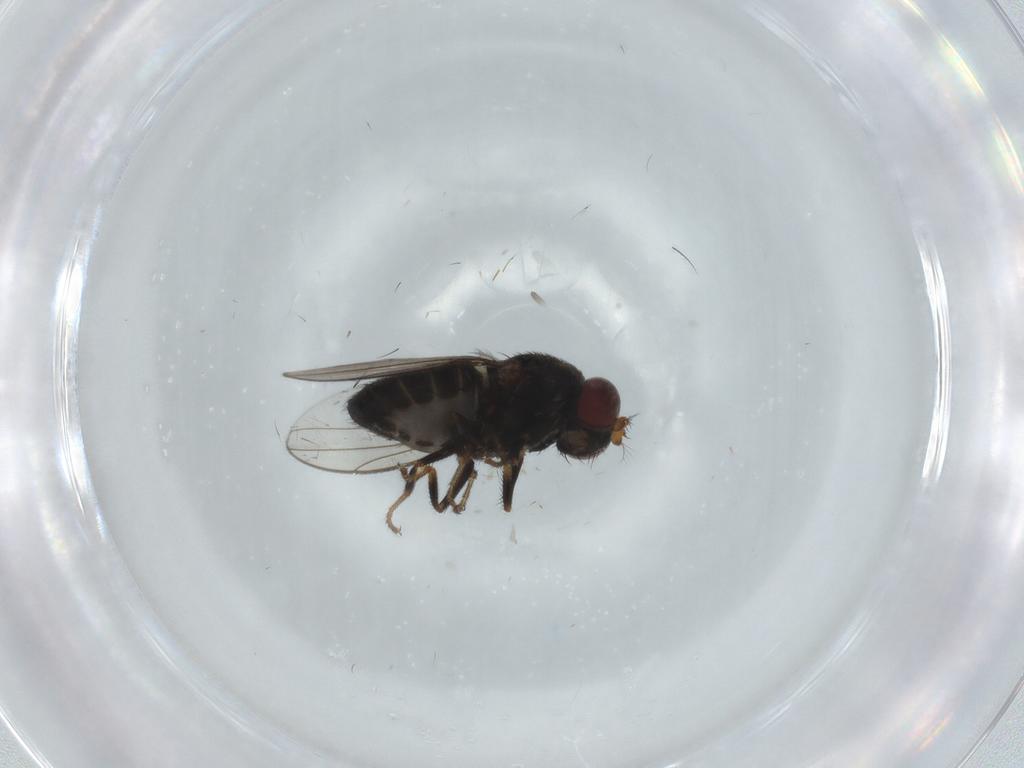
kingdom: Animalia
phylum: Arthropoda
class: Insecta
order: Diptera
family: Ceratopogonidae
